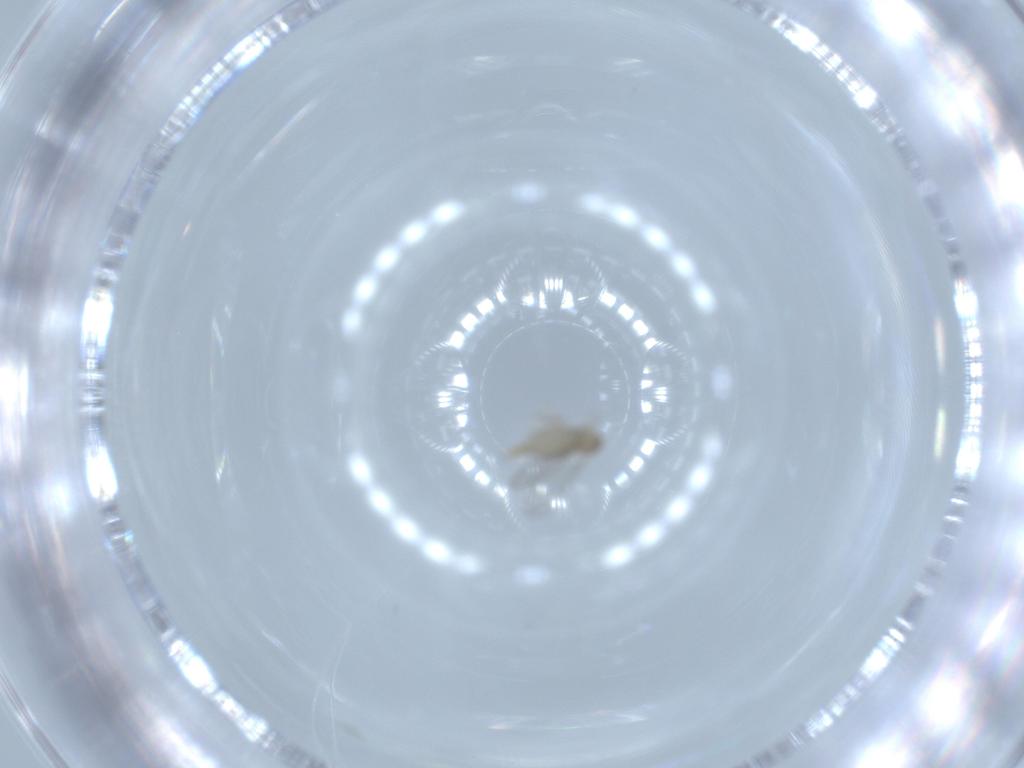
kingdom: Animalia
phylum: Arthropoda
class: Insecta
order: Diptera
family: Cecidomyiidae
